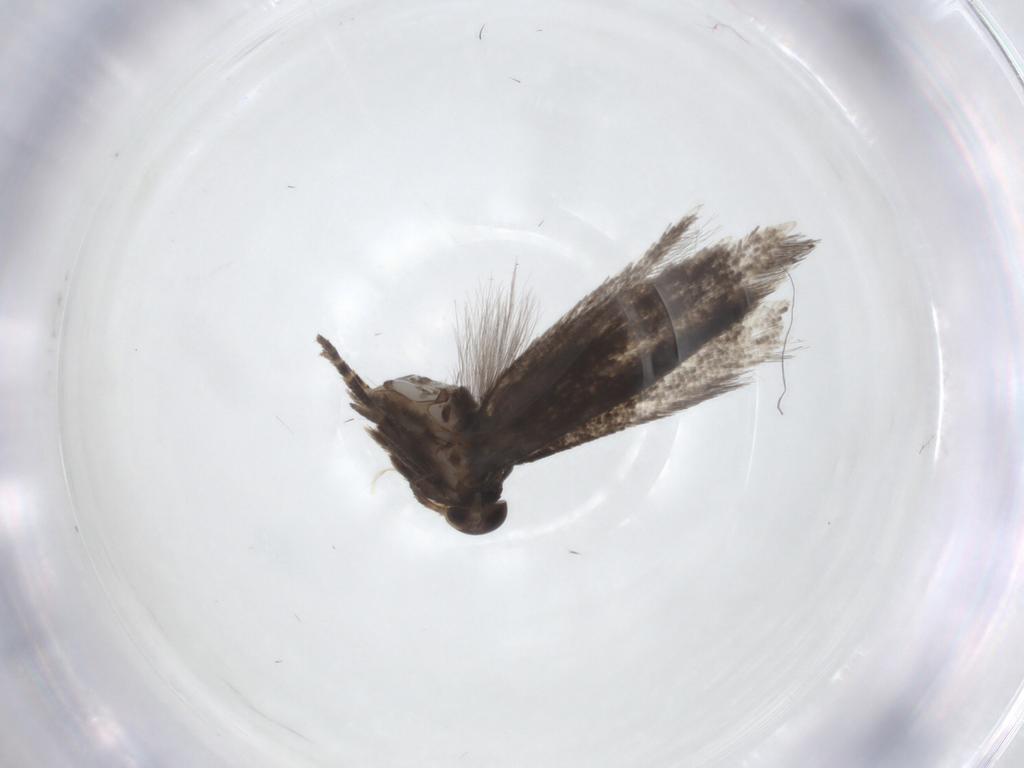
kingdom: Animalia
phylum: Arthropoda
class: Insecta
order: Lepidoptera
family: Elachistidae
